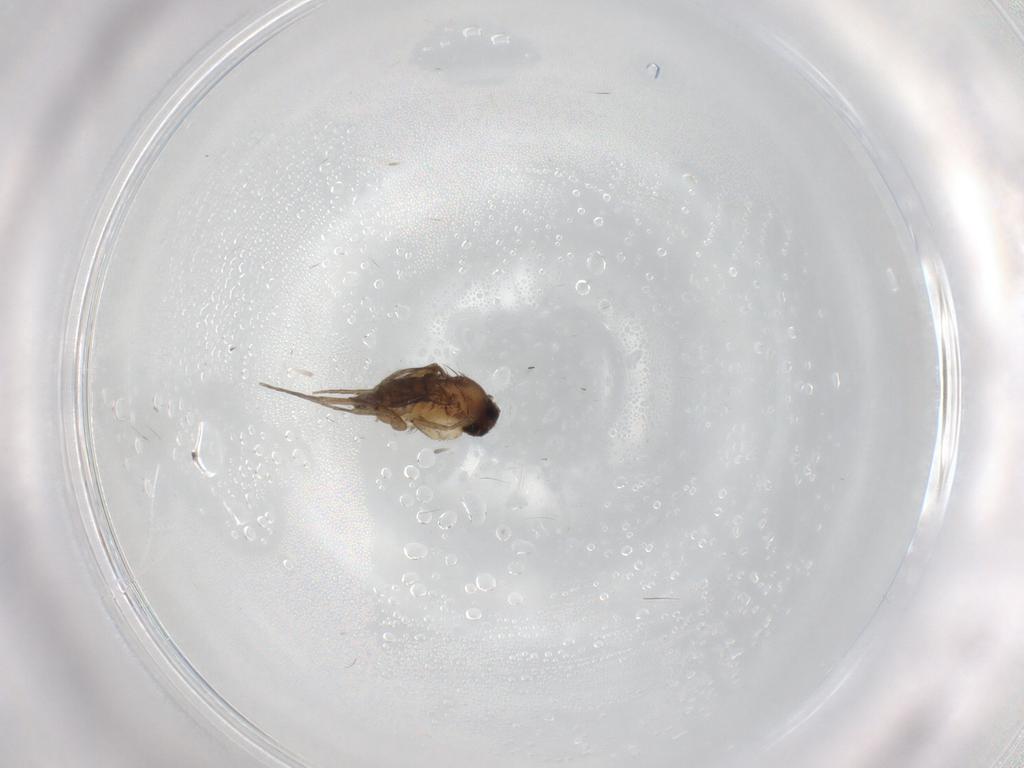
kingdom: Animalia
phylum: Arthropoda
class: Insecta
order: Diptera
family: Phoridae
